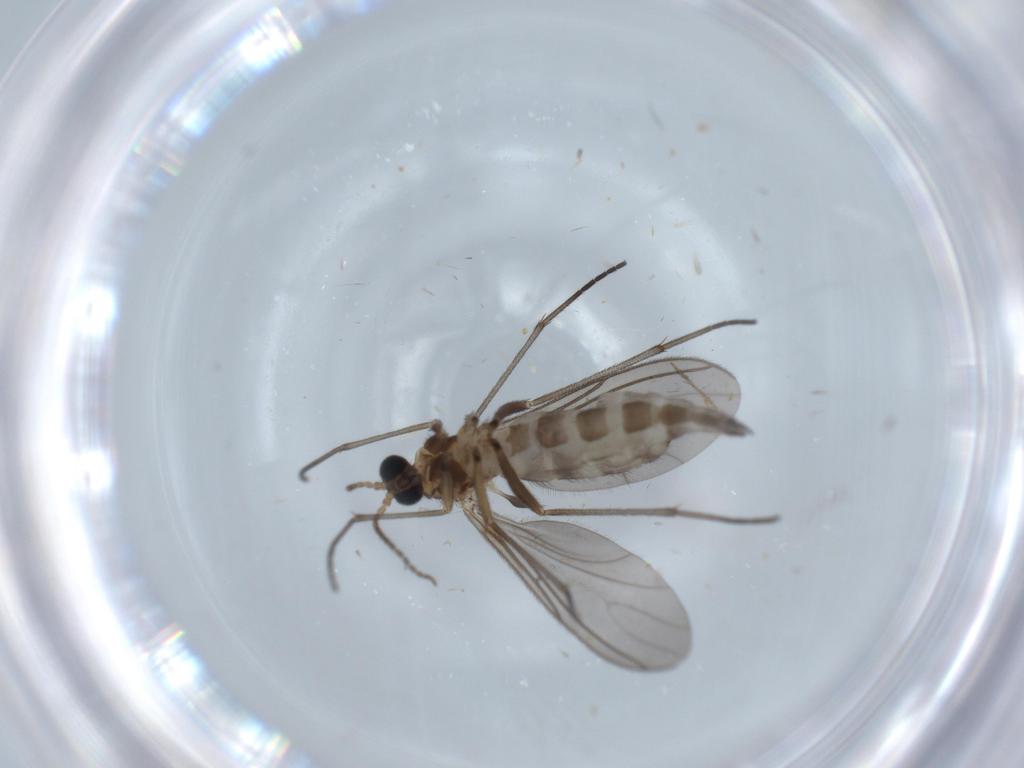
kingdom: Animalia
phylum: Arthropoda
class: Insecta
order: Diptera
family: Sciaridae
